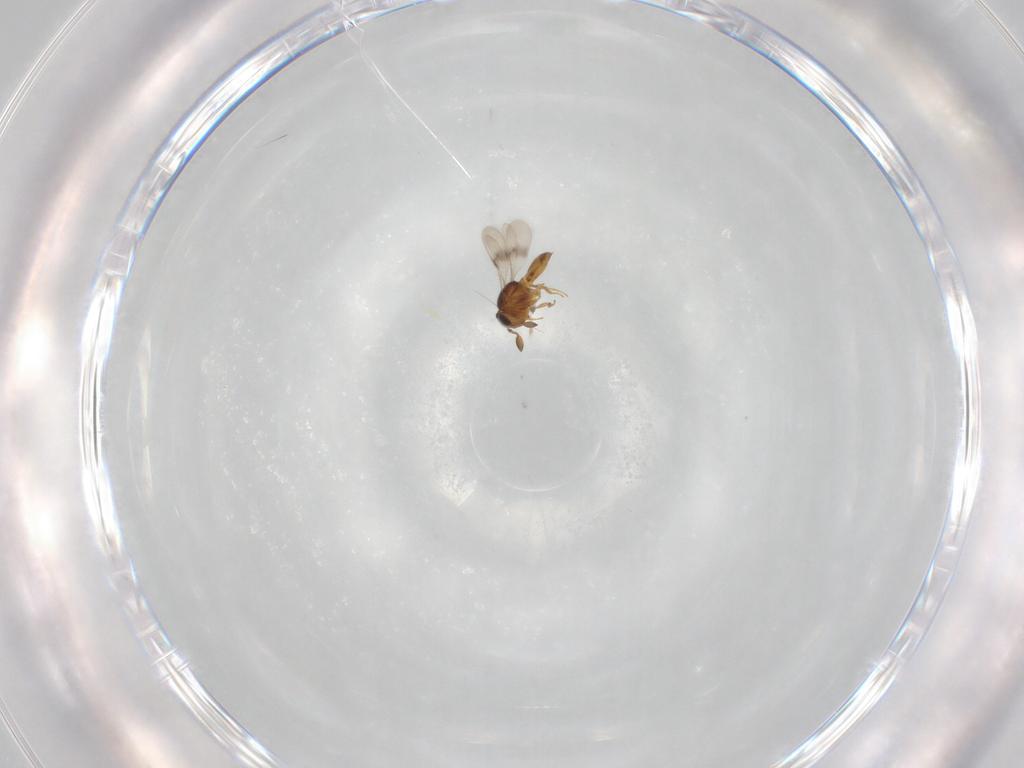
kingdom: Animalia
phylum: Arthropoda
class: Insecta
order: Hymenoptera
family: Scelionidae
